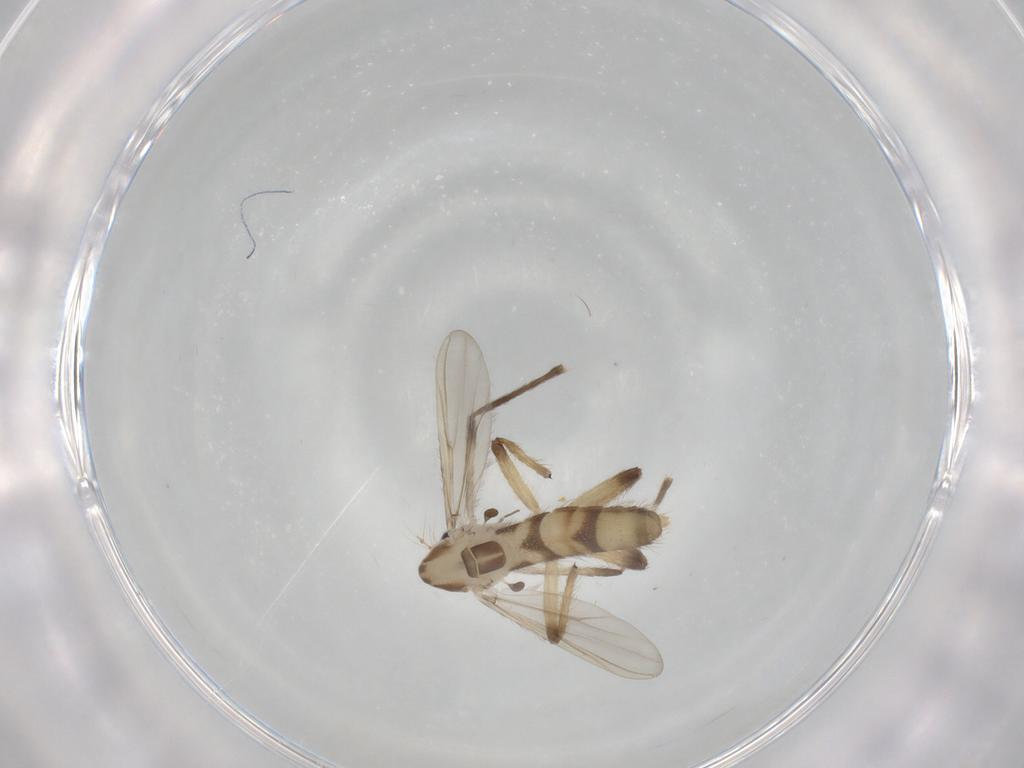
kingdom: Animalia
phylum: Arthropoda
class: Insecta
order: Diptera
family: Chironomidae
